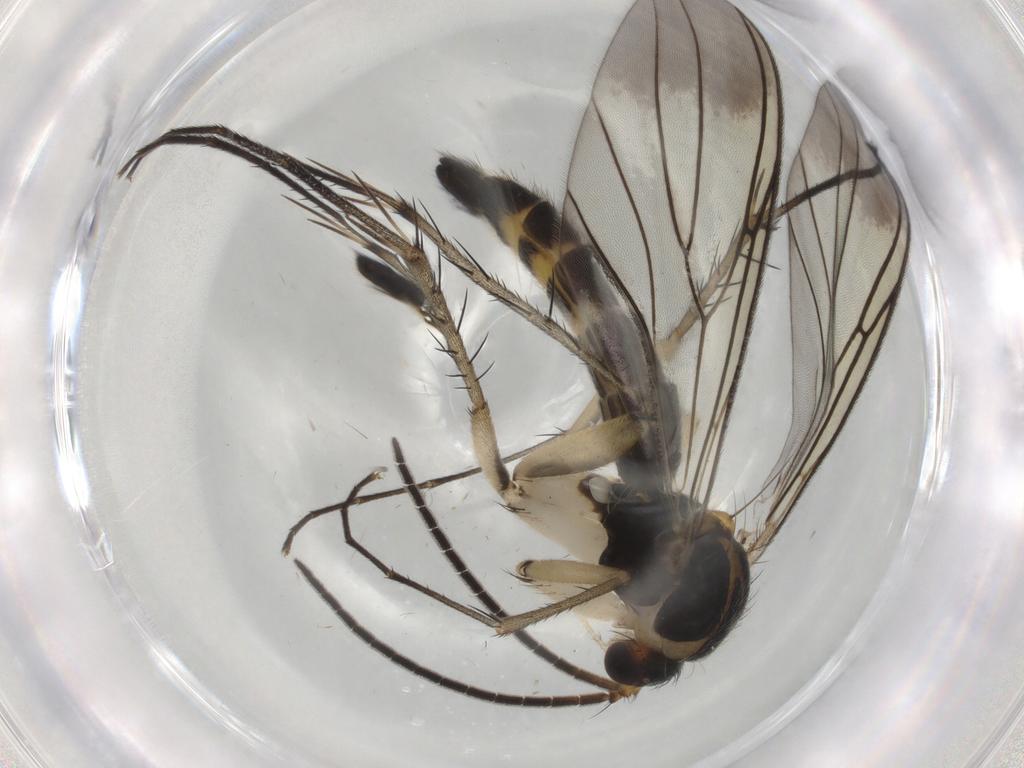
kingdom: Animalia
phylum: Arthropoda
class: Insecta
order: Diptera
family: Mycetophilidae
